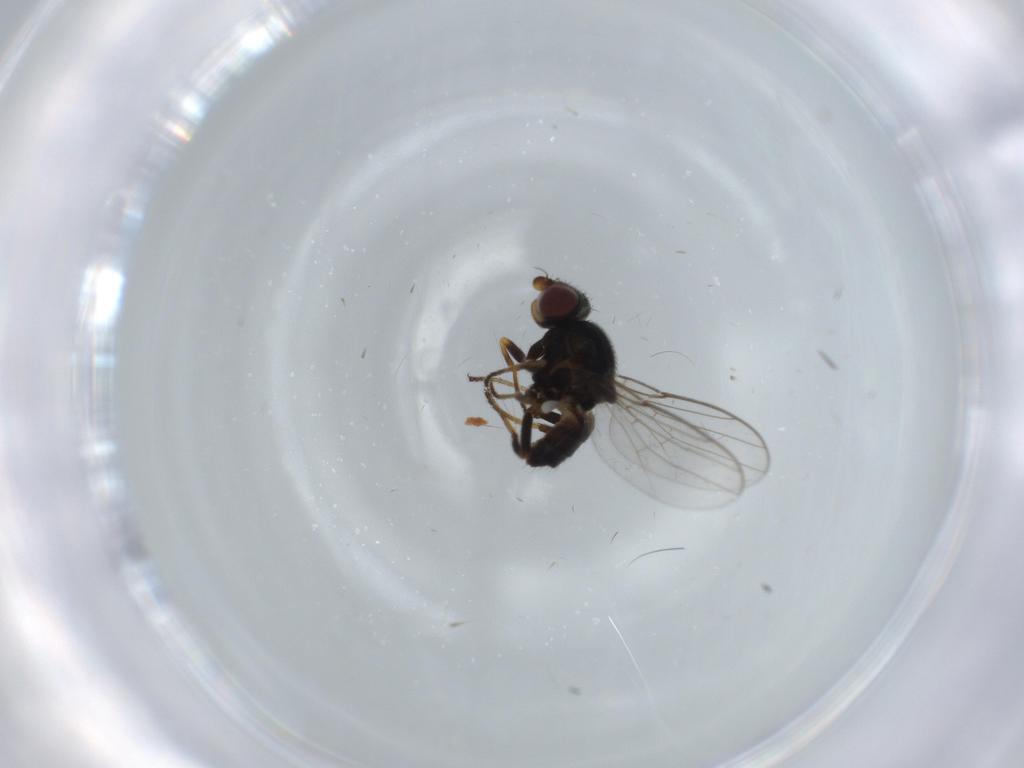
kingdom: Animalia
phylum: Arthropoda
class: Insecta
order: Diptera
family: Chloropidae
